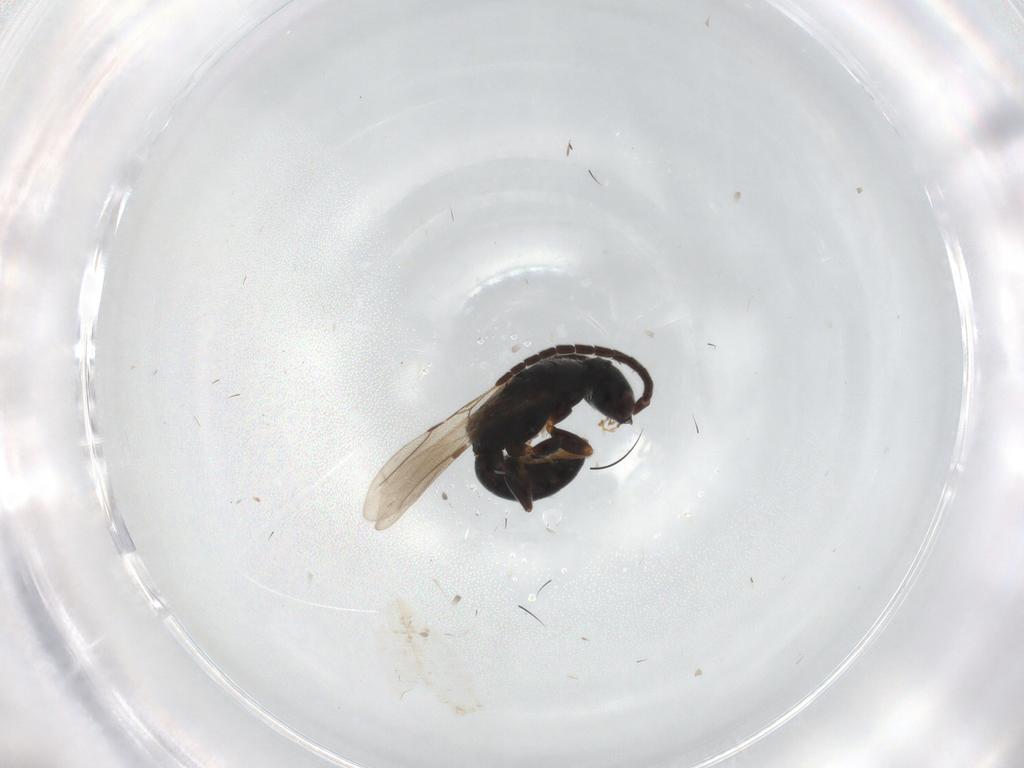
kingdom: Animalia
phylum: Arthropoda
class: Insecta
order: Hymenoptera
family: Bethylidae
